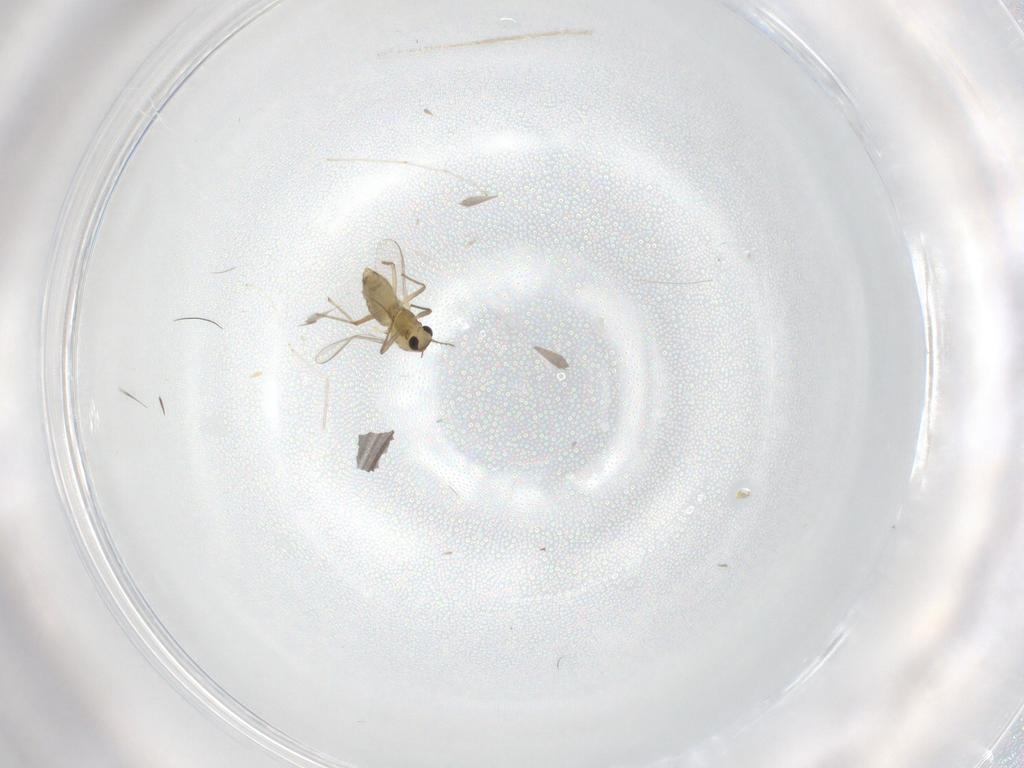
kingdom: Animalia
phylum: Arthropoda
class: Insecta
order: Diptera
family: Chironomidae
